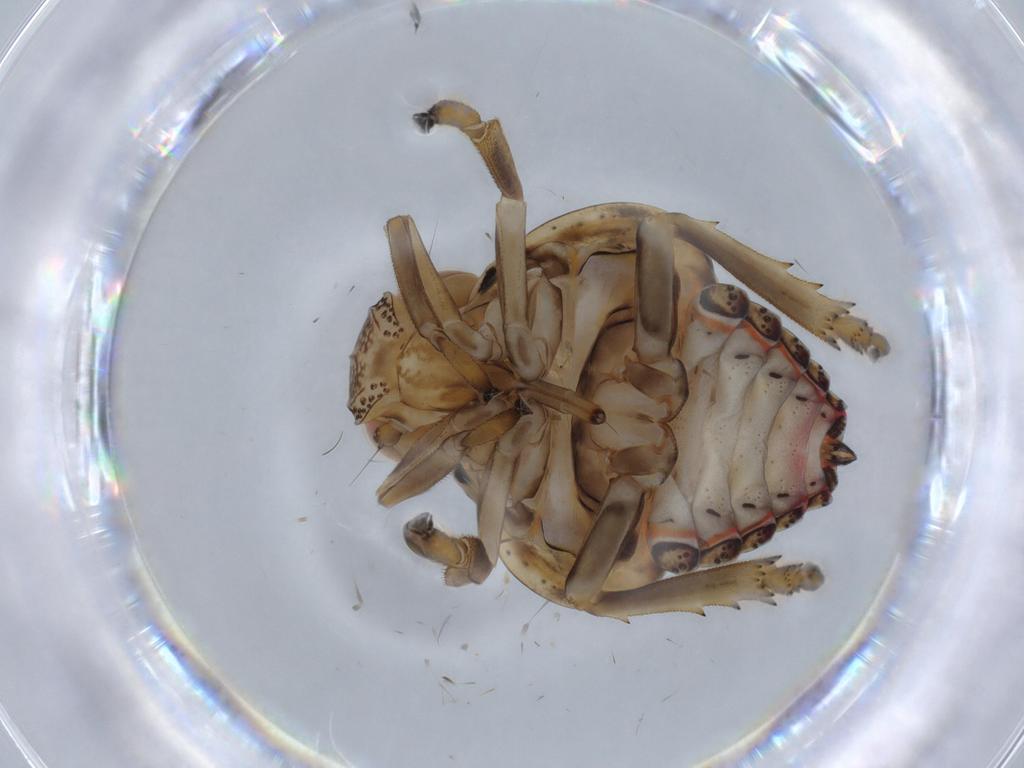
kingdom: Animalia
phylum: Arthropoda
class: Insecta
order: Hemiptera
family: Issidae
